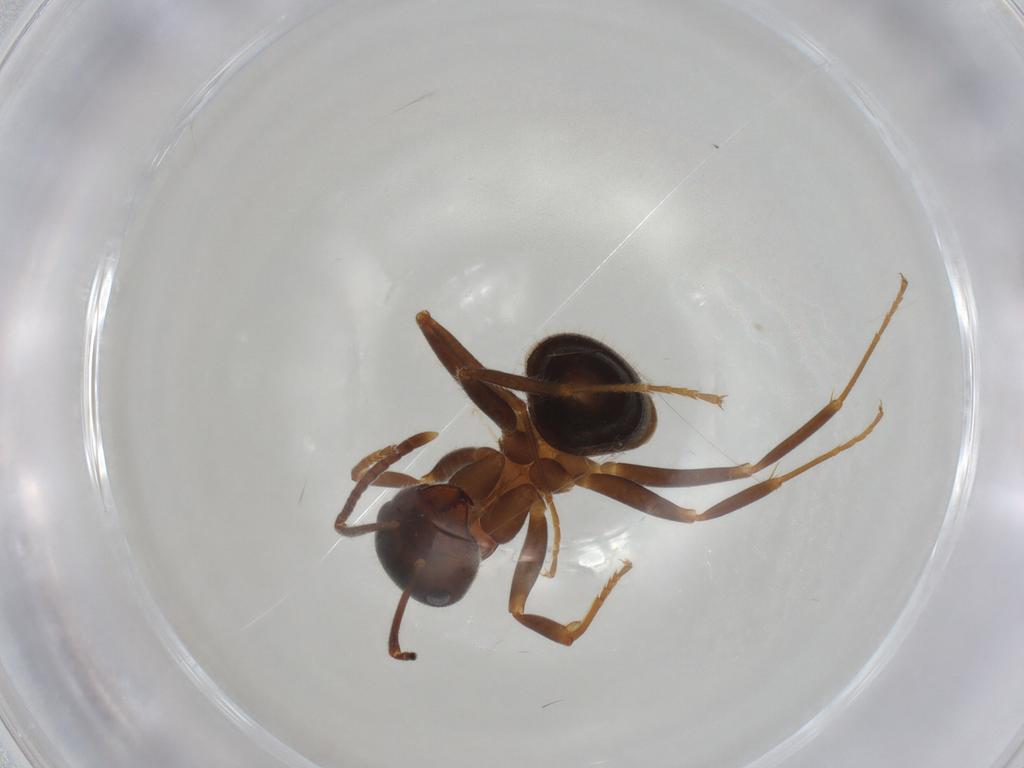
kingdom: Animalia
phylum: Arthropoda
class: Insecta
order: Hymenoptera
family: Formicidae
